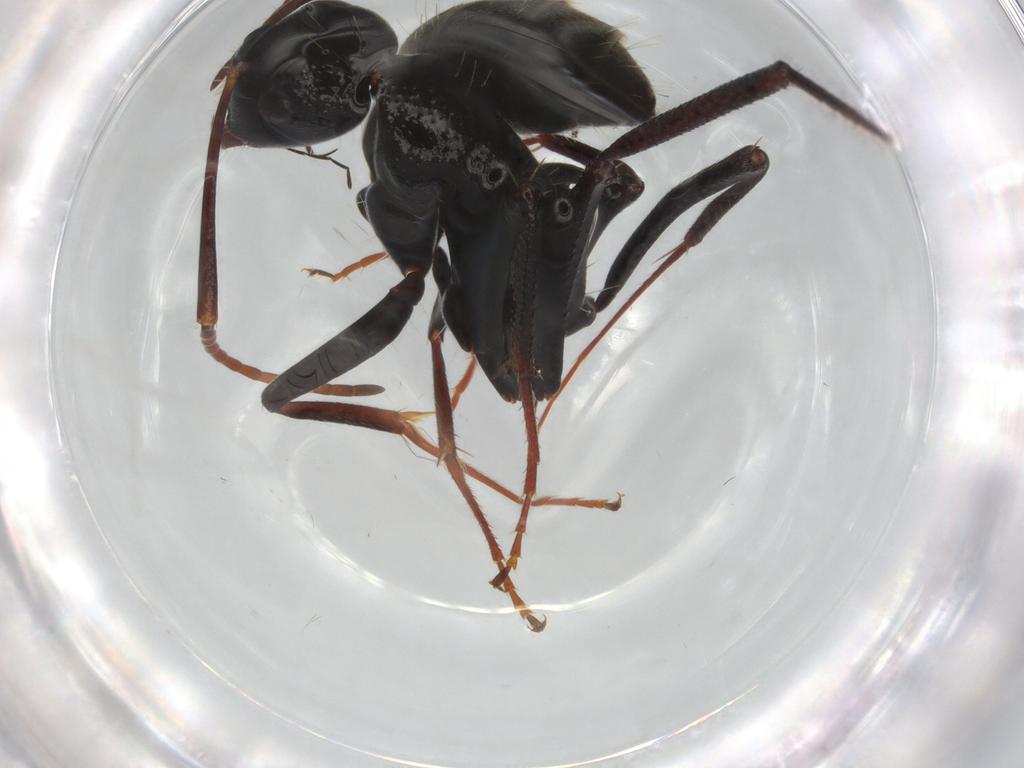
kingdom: Animalia
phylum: Arthropoda
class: Insecta
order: Hymenoptera
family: Formicidae
